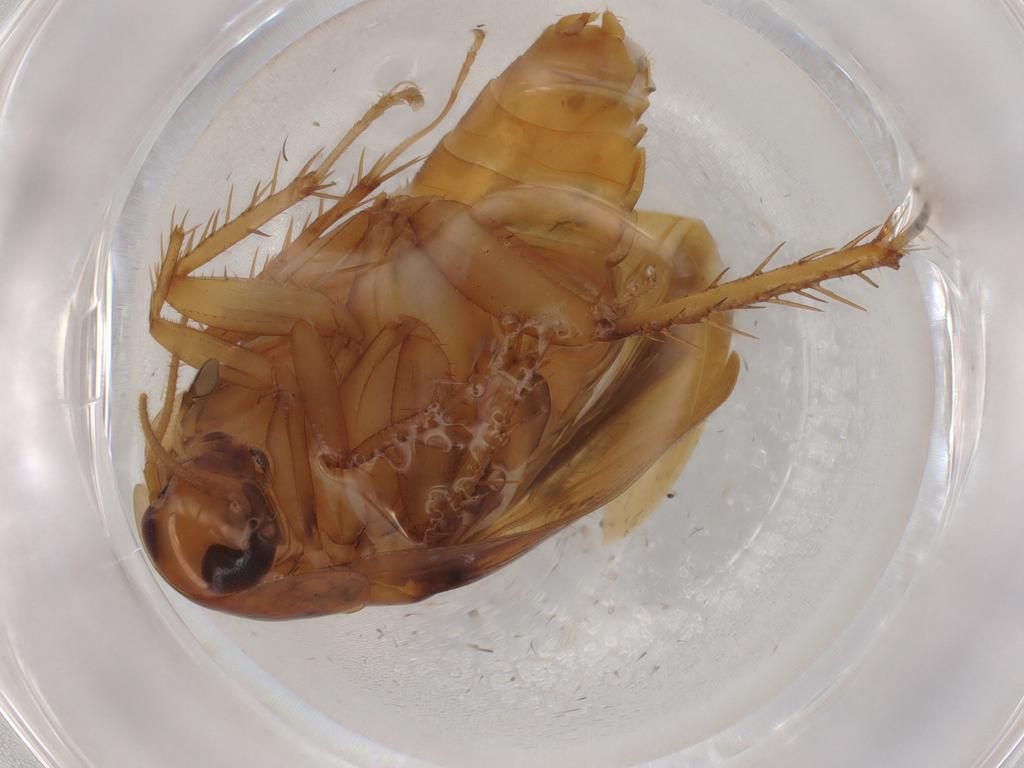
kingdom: Animalia
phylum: Arthropoda
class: Insecta
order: Blattodea
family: Ectobiidae
